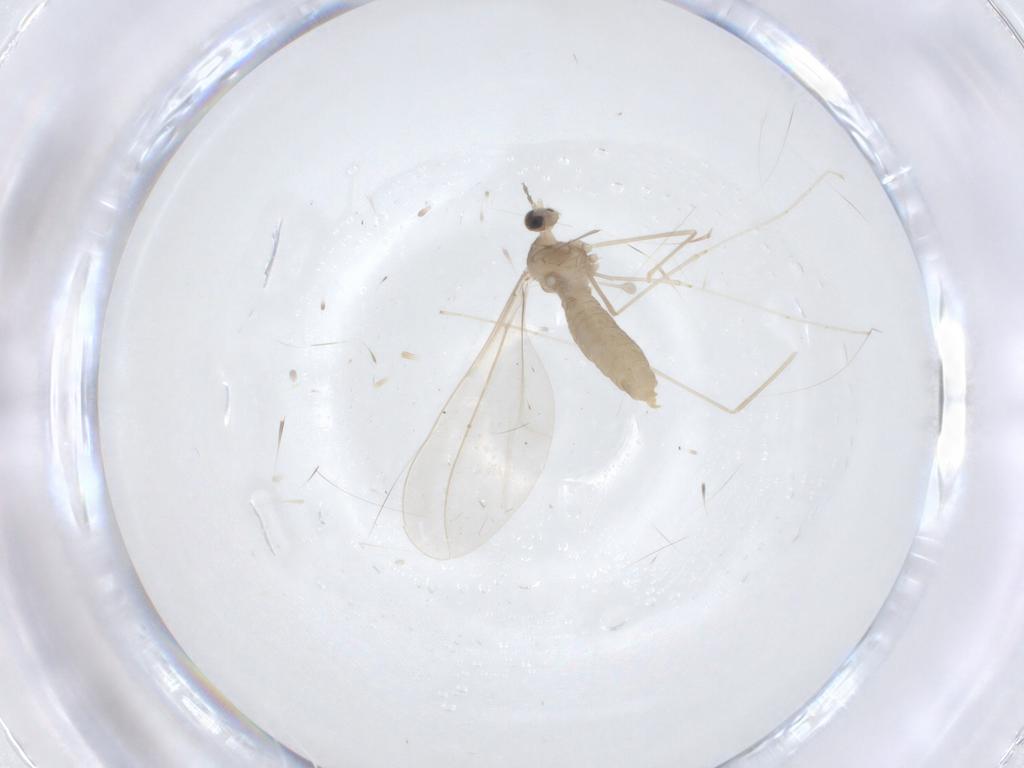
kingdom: Animalia
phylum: Arthropoda
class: Insecta
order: Diptera
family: Cecidomyiidae
